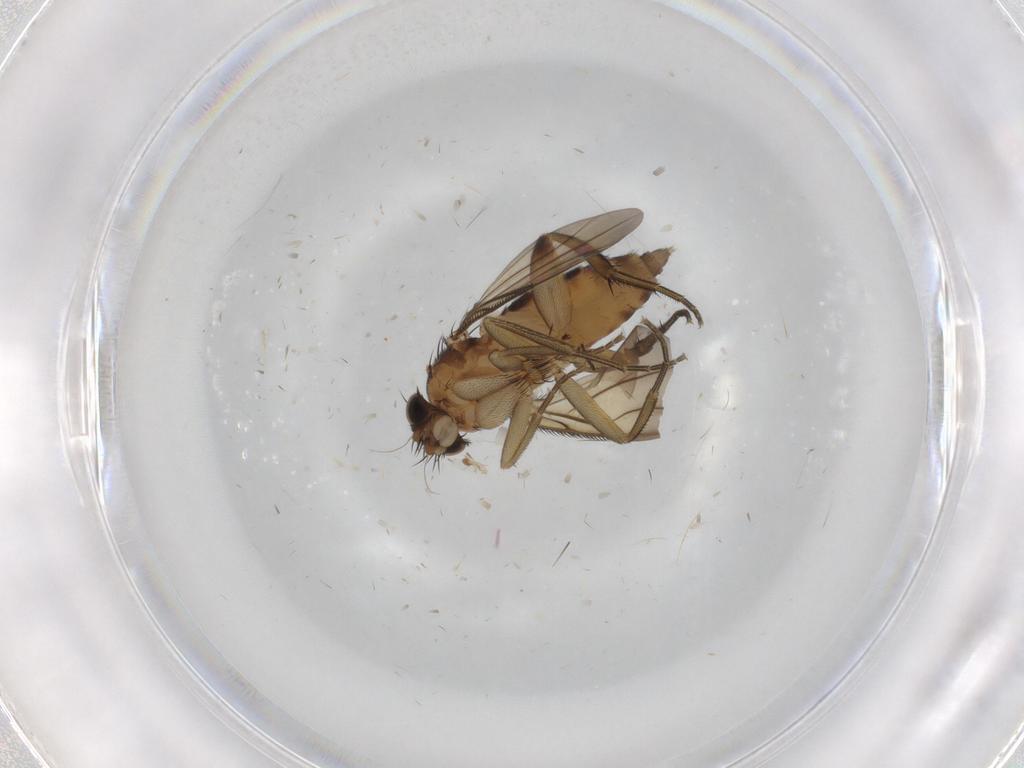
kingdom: Animalia
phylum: Arthropoda
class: Insecta
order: Diptera
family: Phoridae
